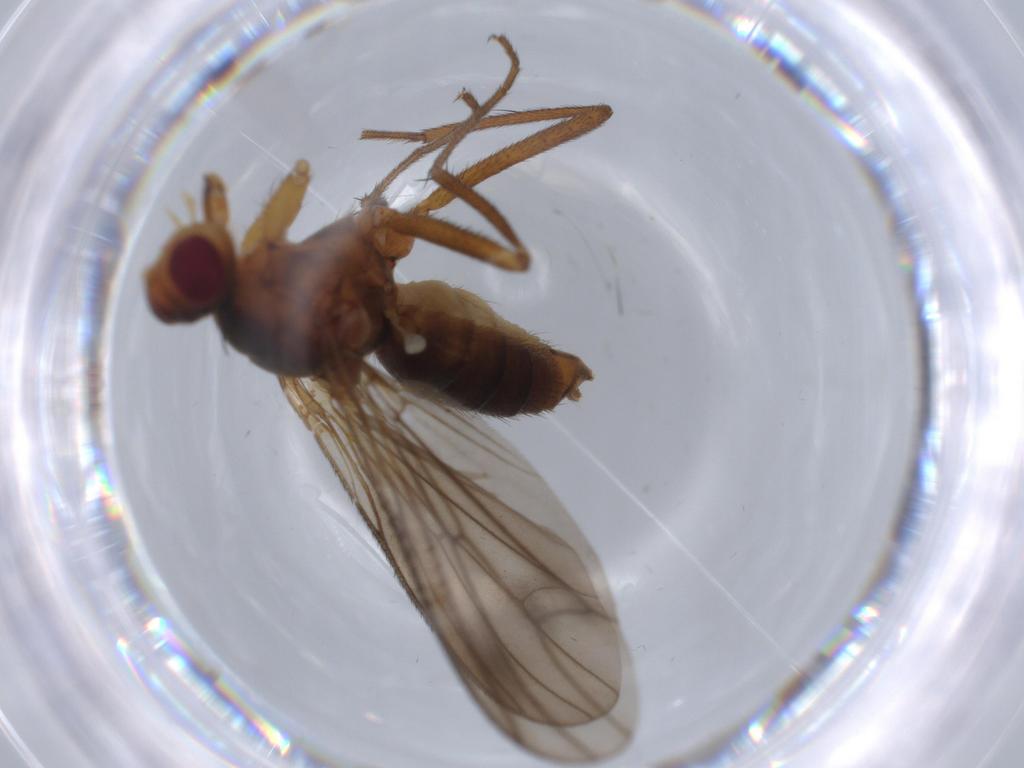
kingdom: Animalia
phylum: Arthropoda
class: Insecta
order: Diptera
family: Scathophagidae
